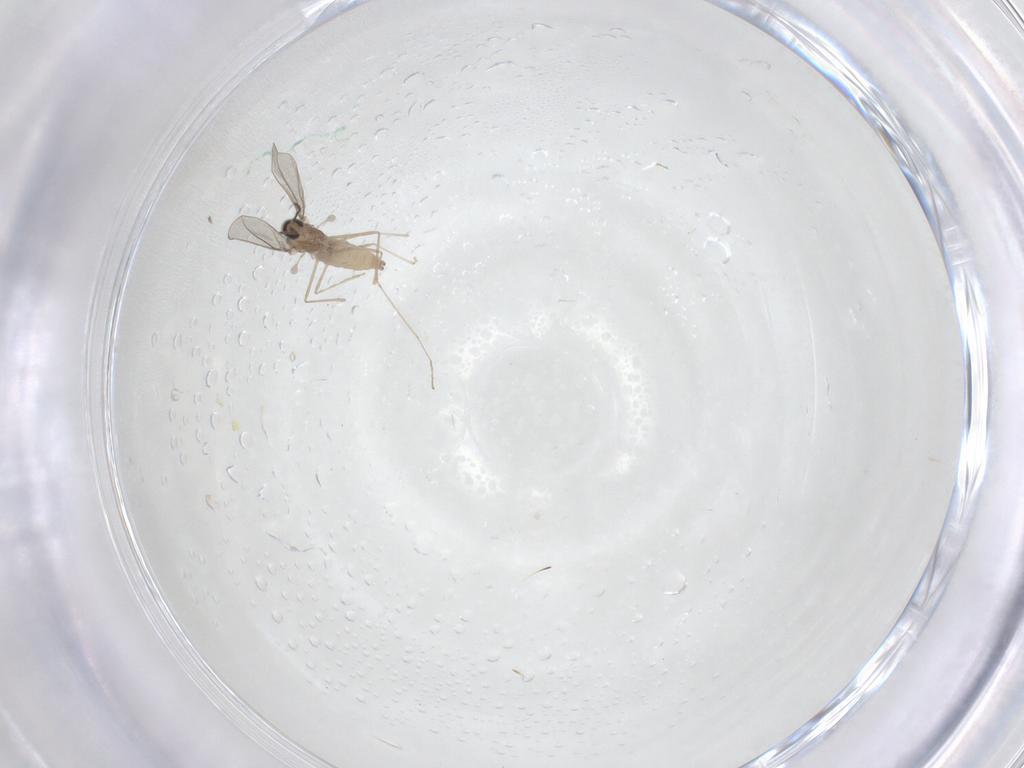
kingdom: Animalia
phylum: Arthropoda
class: Insecta
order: Diptera
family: Cecidomyiidae
